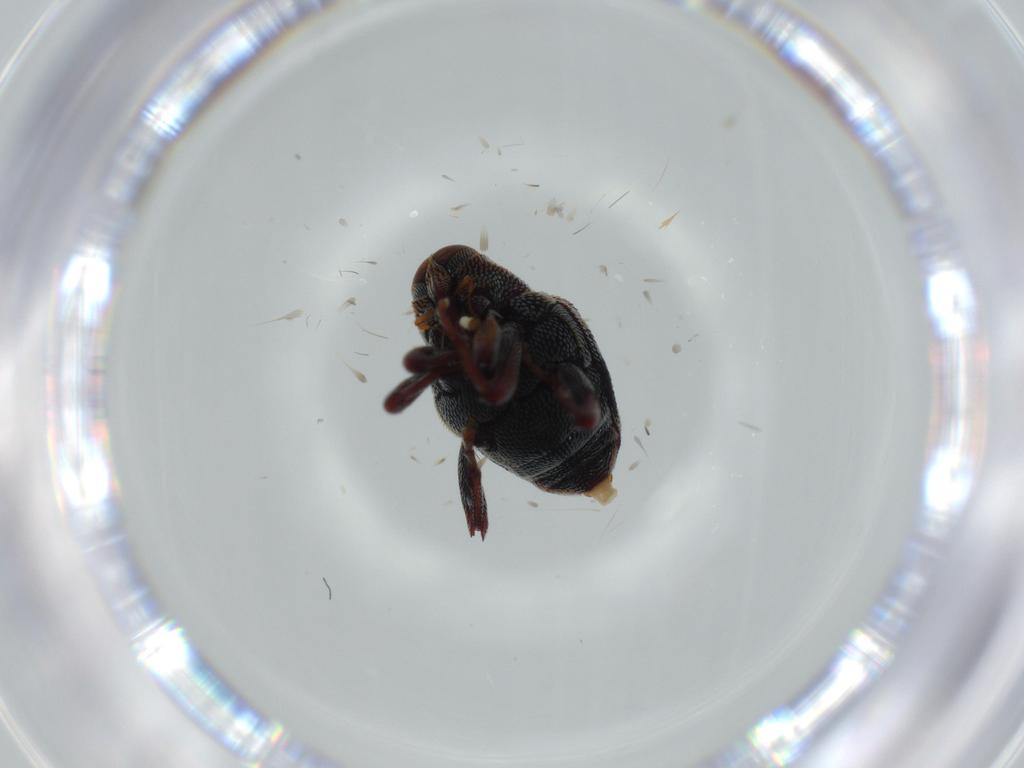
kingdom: Animalia
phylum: Arthropoda
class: Insecta
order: Coleoptera
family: Curculionidae
